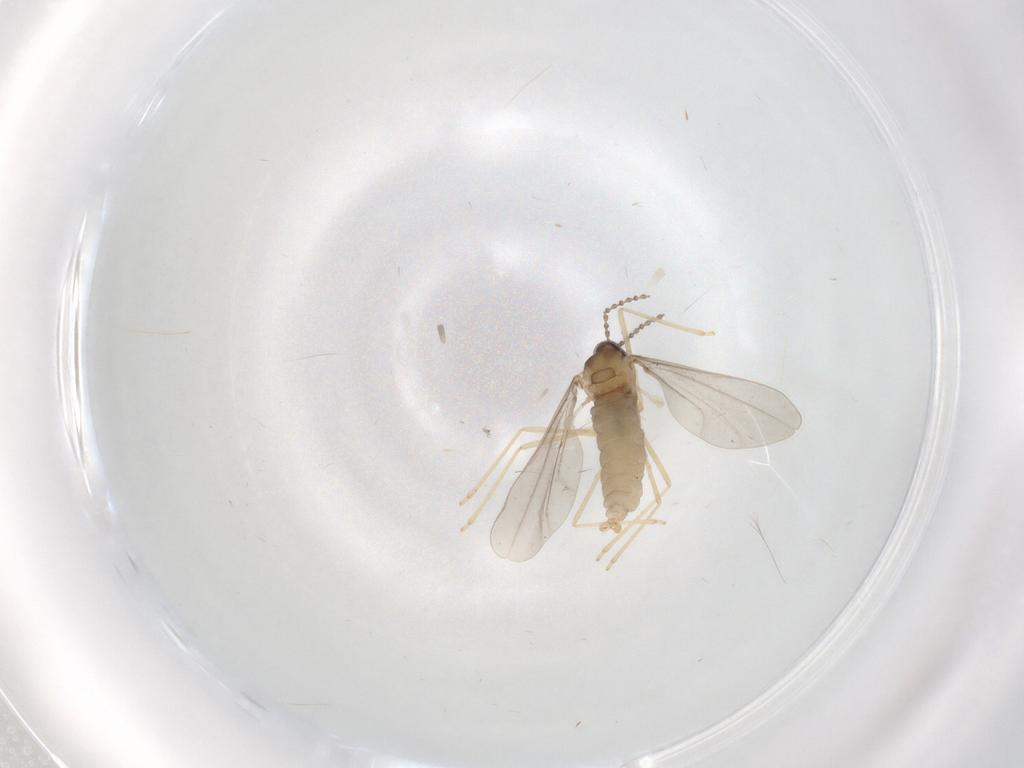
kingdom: Animalia
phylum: Arthropoda
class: Insecta
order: Diptera
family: Cecidomyiidae
